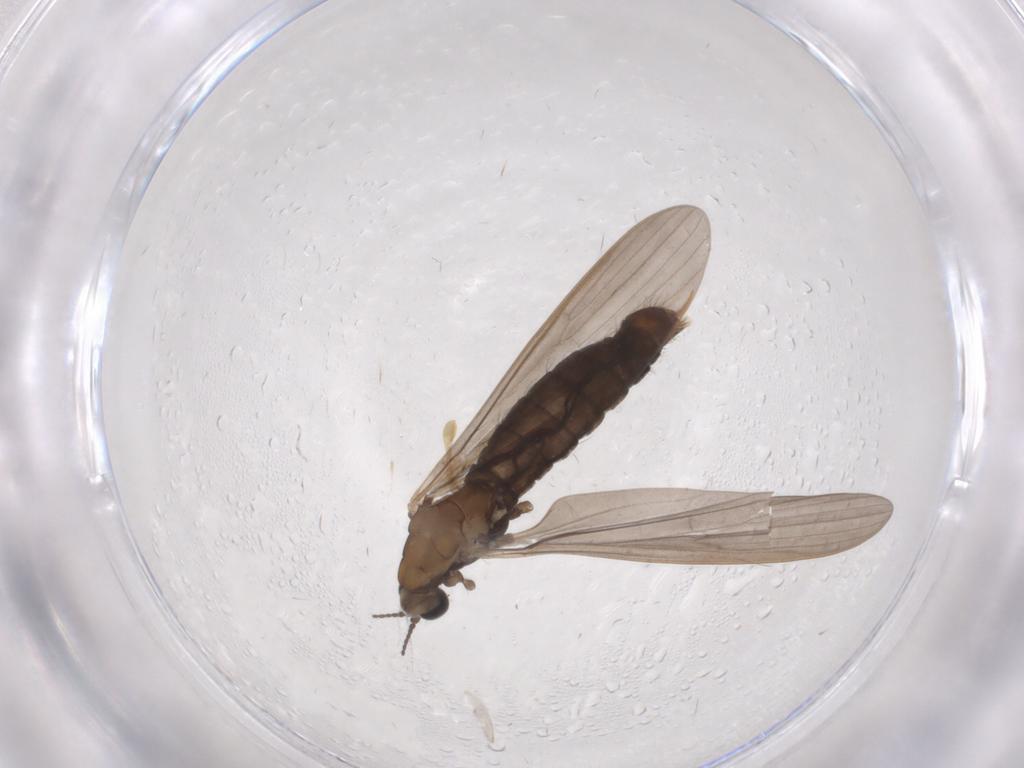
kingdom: Animalia
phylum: Arthropoda
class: Insecta
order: Diptera
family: Limoniidae
